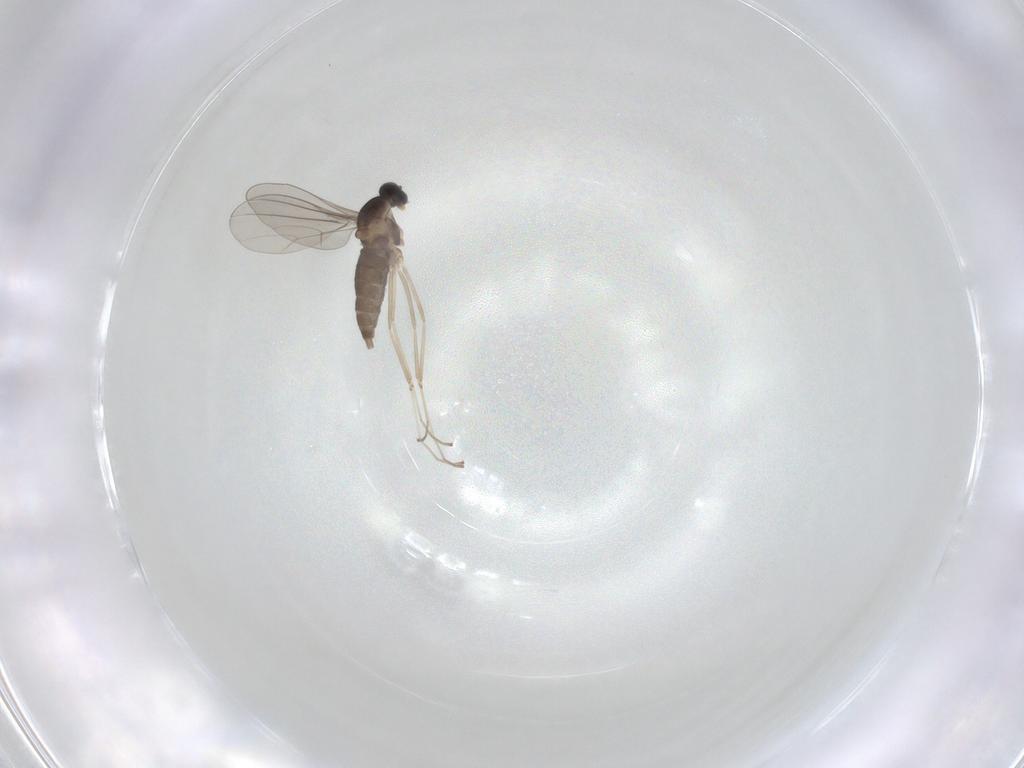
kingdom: Animalia
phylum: Arthropoda
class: Insecta
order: Diptera
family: Cecidomyiidae
